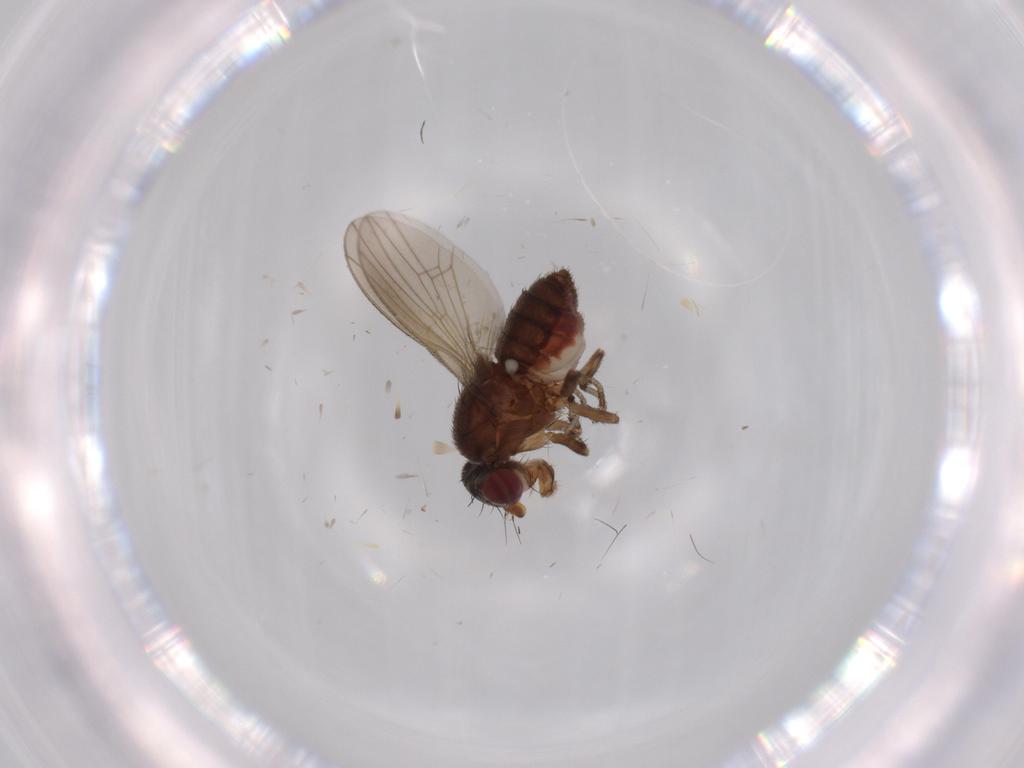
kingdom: Animalia
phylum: Arthropoda
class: Insecta
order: Diptera
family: Heleomyzidae
